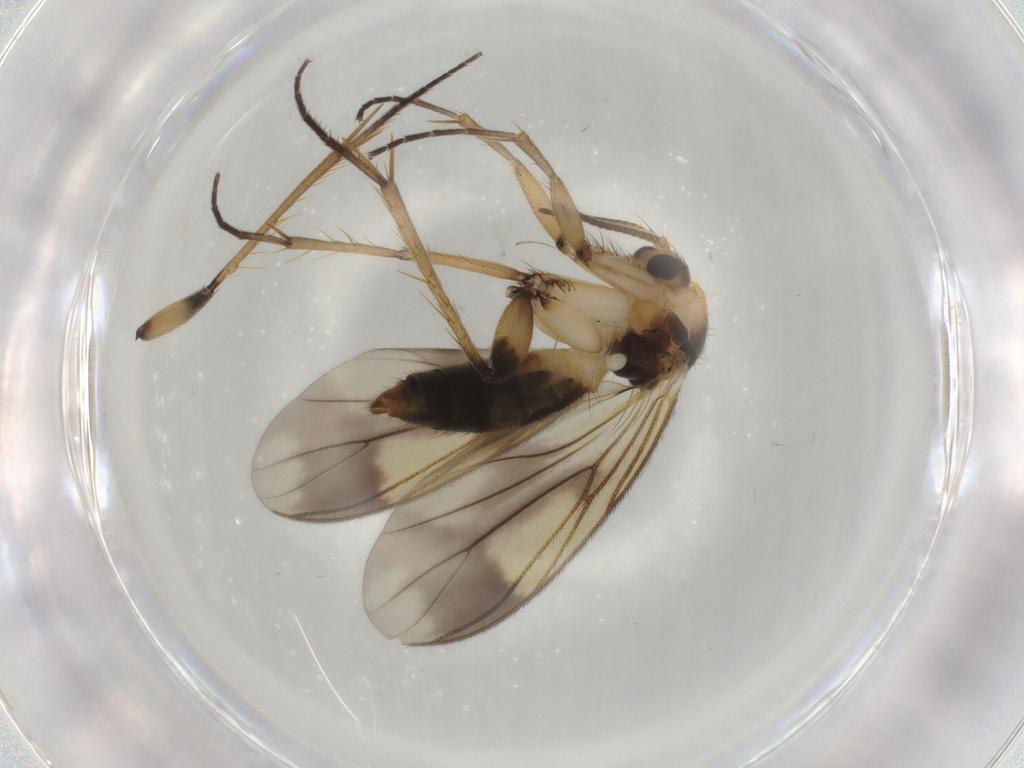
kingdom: Animalia
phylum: Arthropoda
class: Insecta
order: Diptera
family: Mycetophilidae
